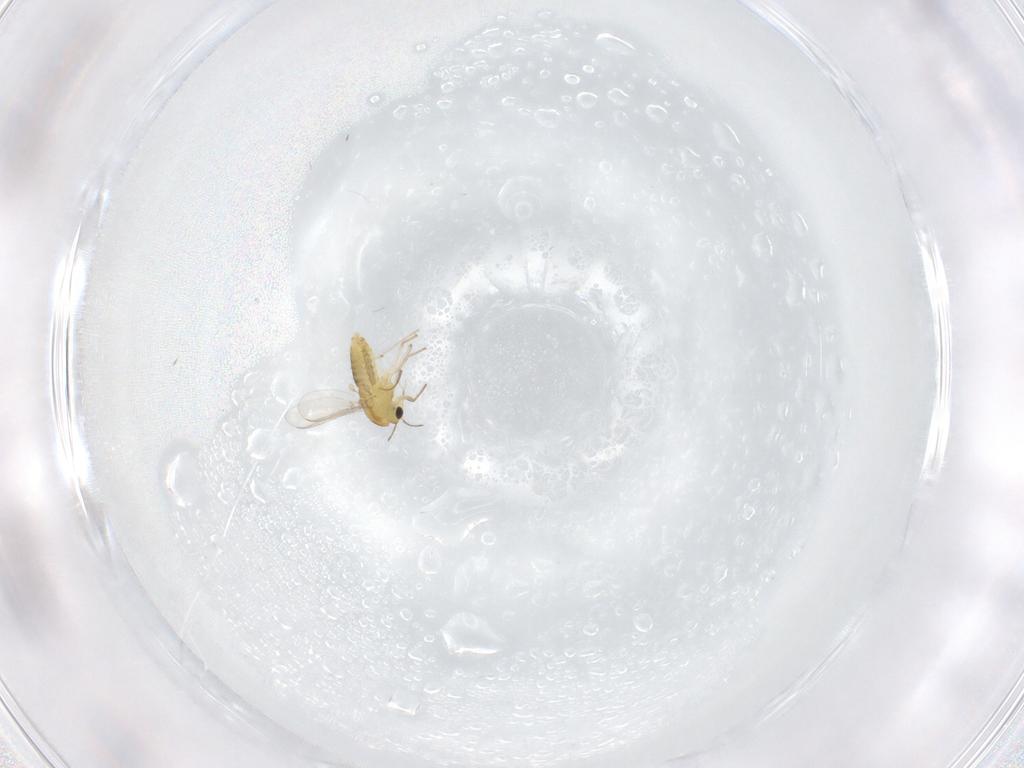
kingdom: Animalia
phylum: Arthropoda
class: Insecta
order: Diptera
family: Chironomidae
